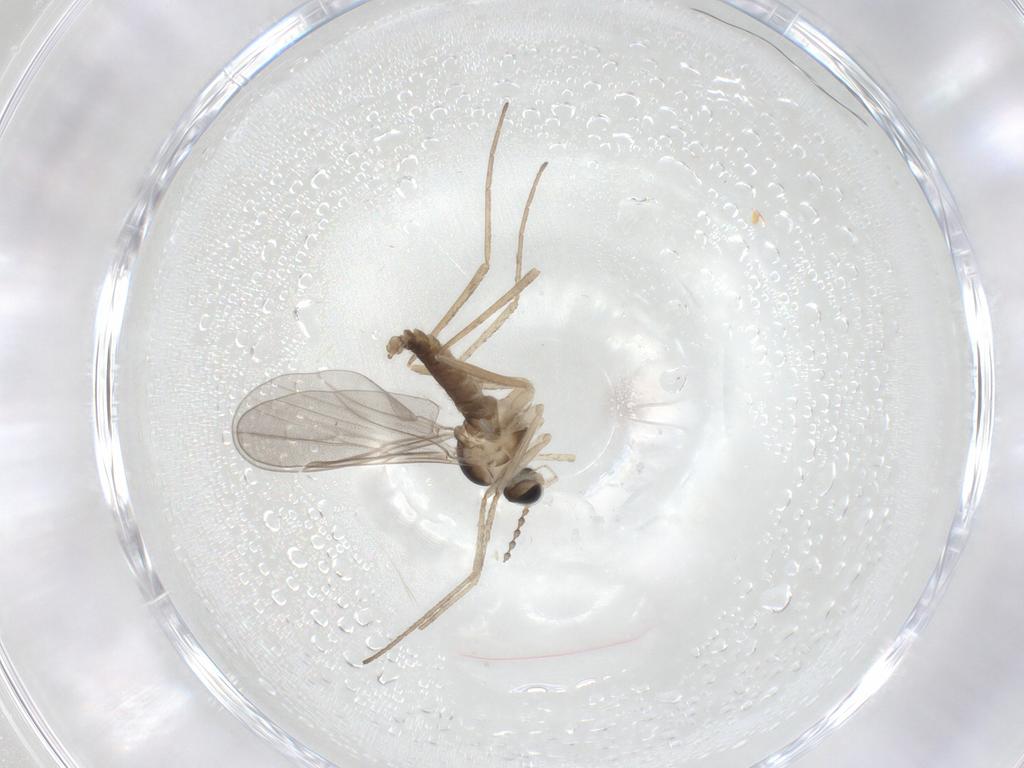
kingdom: Animalia
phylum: Arthropoda
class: Insecta
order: Diptera
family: Cecidomyiidae
